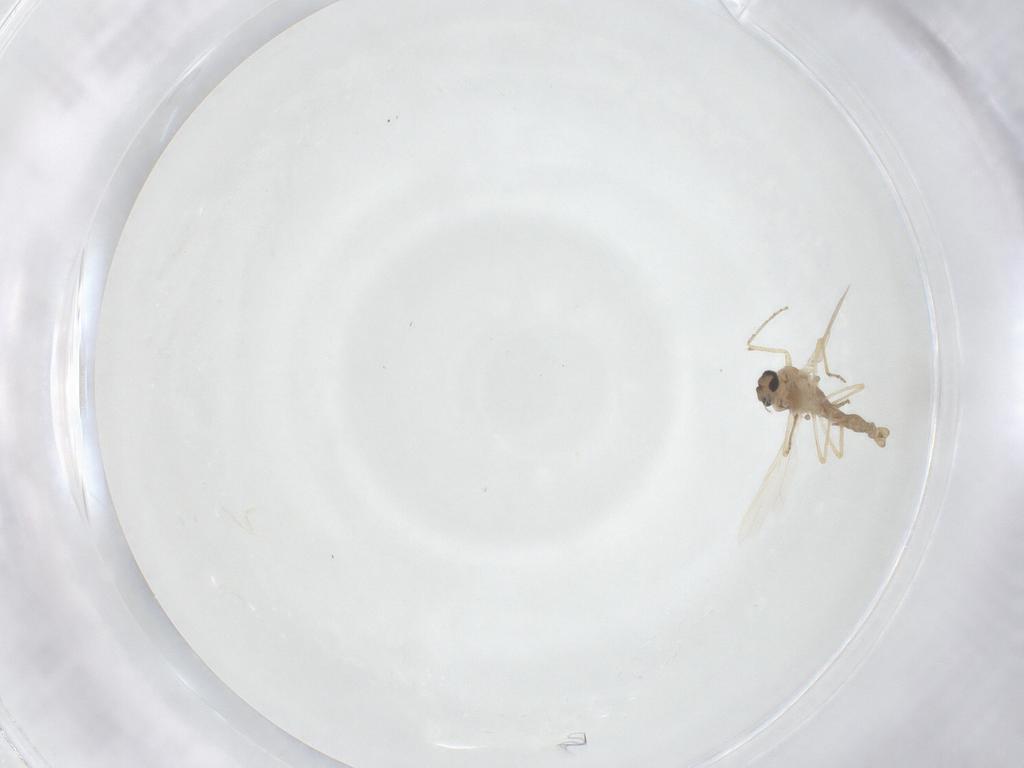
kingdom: Animalia
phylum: Arthropoda
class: Insecta
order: Diptera
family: Ceratopogonidae
